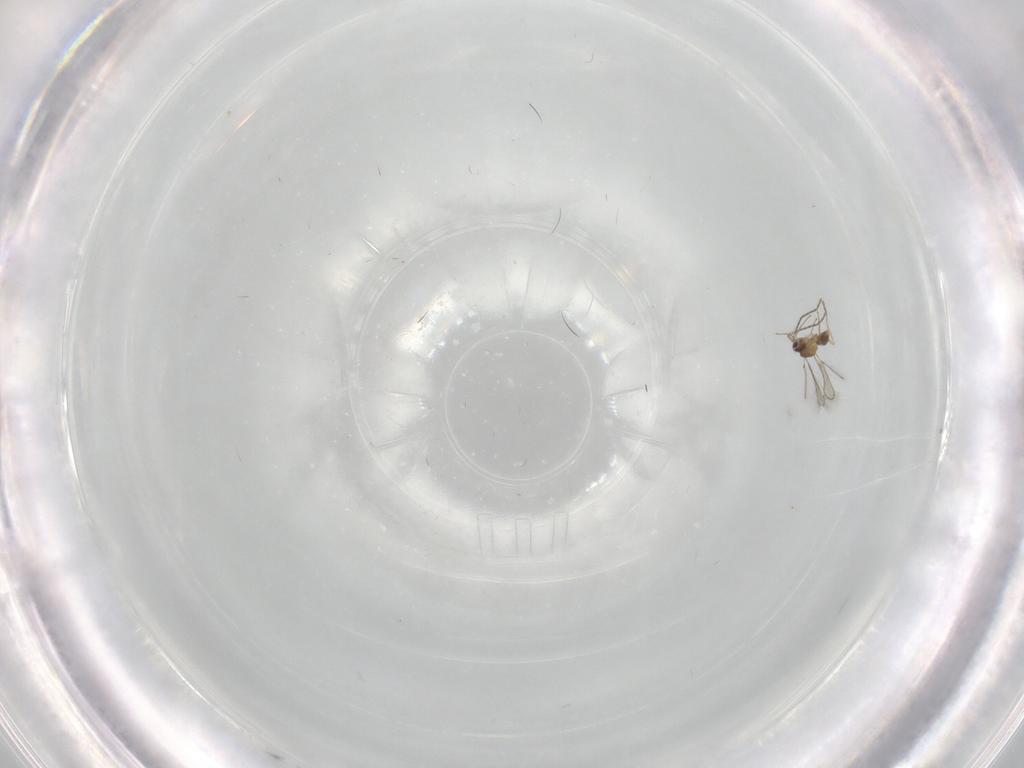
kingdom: Animalia
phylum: Arthropoda
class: Insecta
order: Hymenoptera
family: Mymaridae
